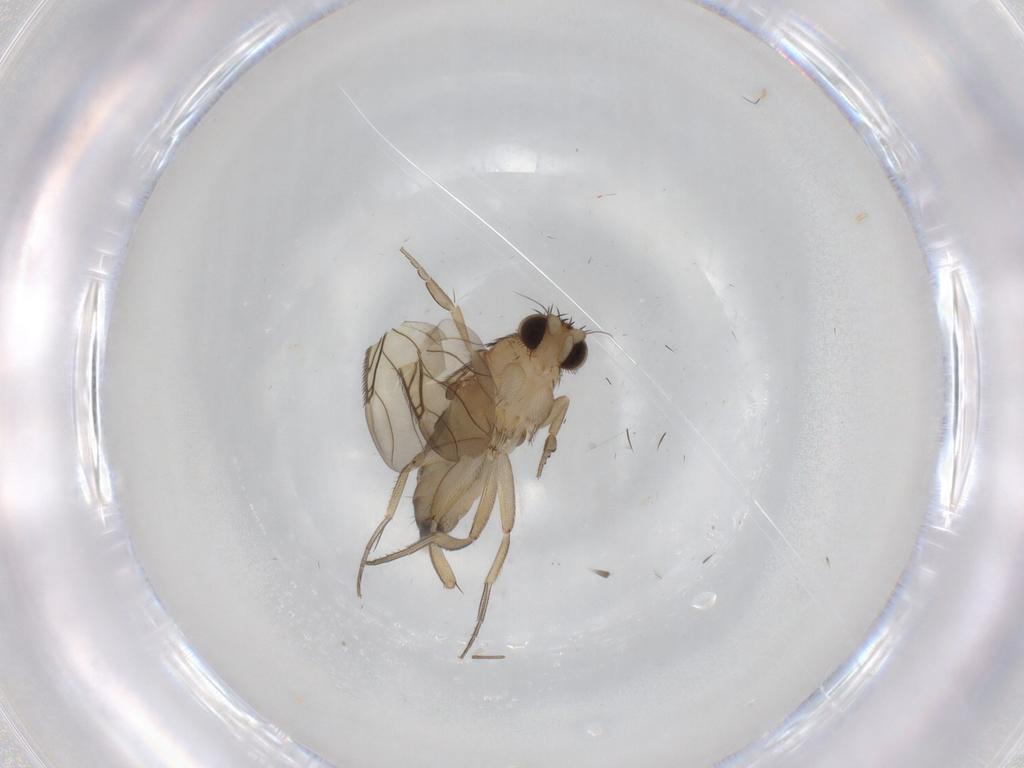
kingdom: Animalia
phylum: Arthropoda
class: Insecta
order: Diptera
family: Phoridae
